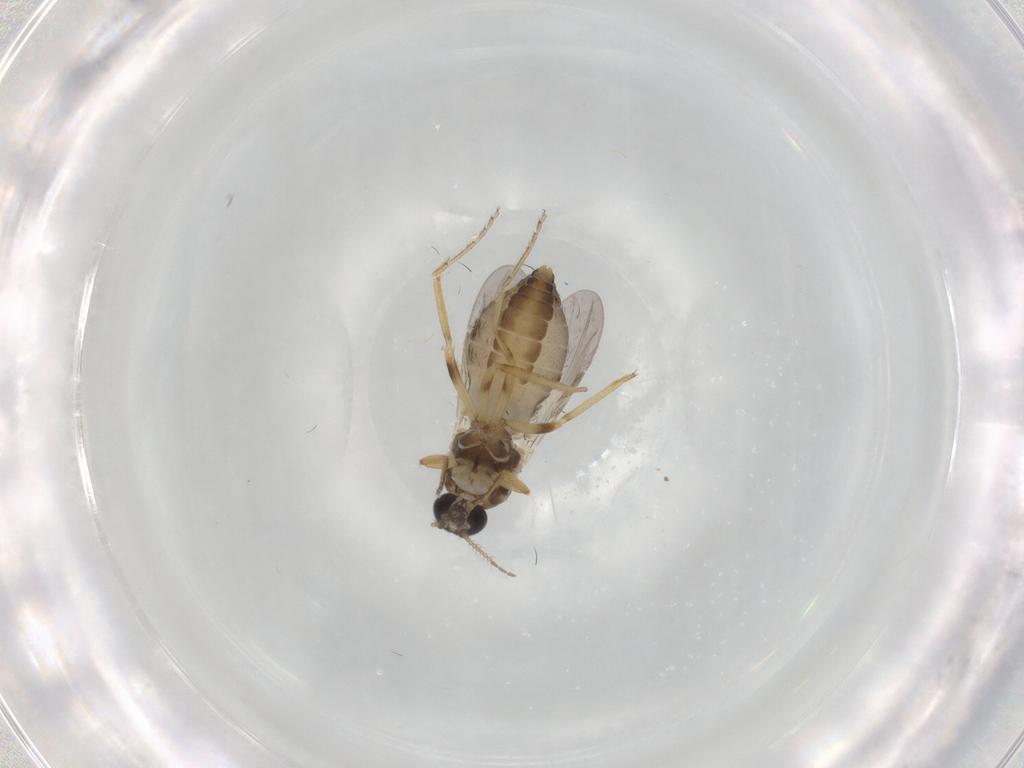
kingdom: Animalia
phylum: Arthropoda
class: Insecta
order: Diptera
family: Ceratopogonidae
